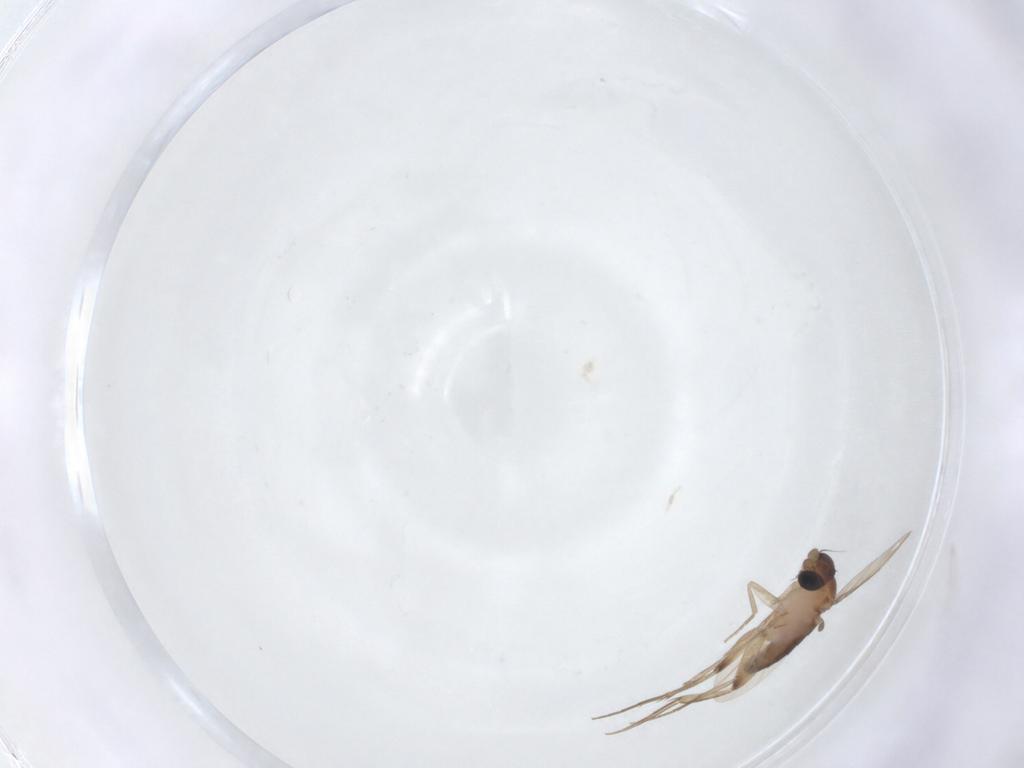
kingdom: Animalia
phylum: Arthropoda
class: Insecta
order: Diptera
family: Phoridae
